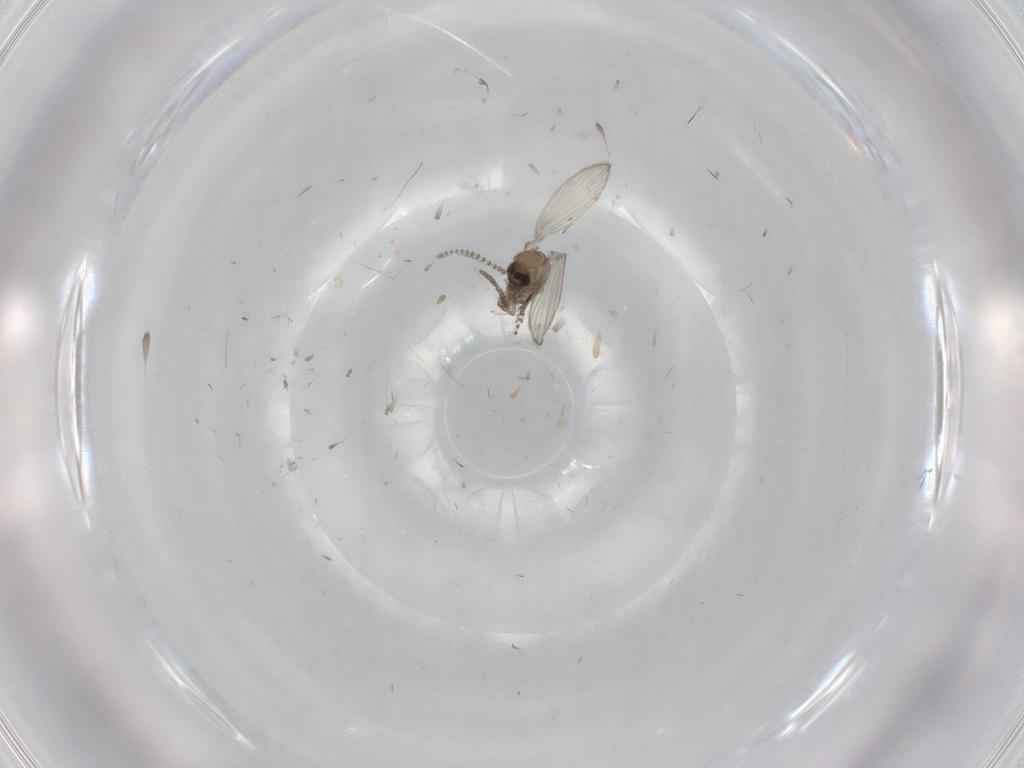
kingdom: Animalia
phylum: Arthropoda
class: Insecta
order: Diptera
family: Psychodidae
